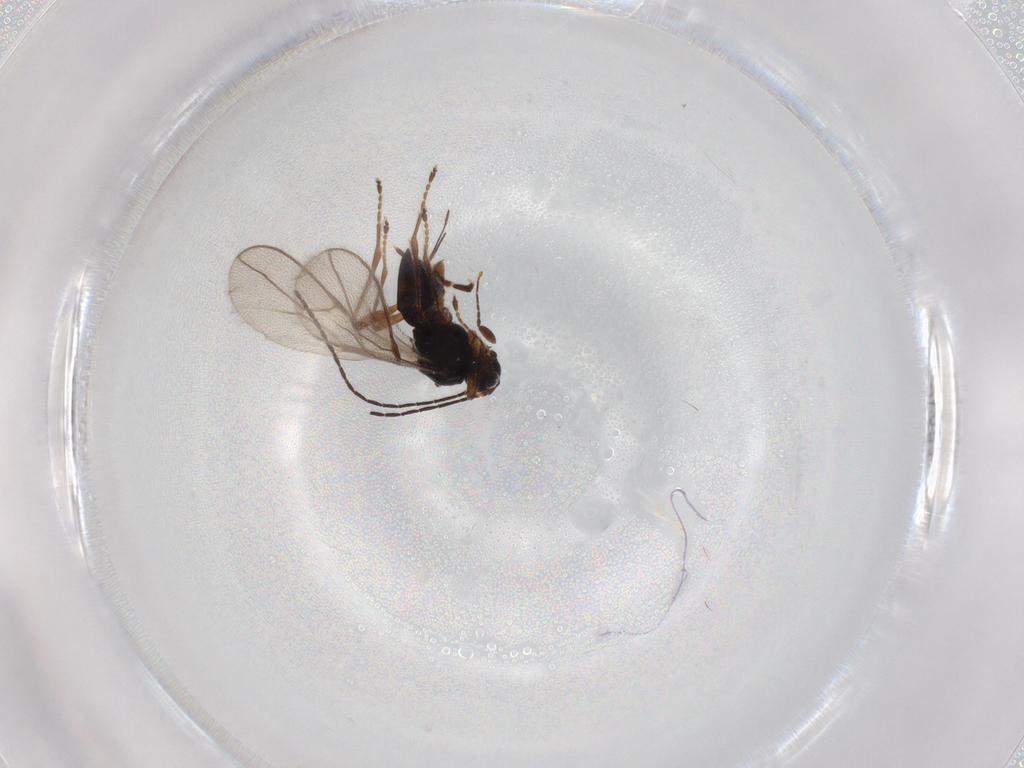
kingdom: Animalia
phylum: Arthropoda
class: Insecta
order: Hymenoptera
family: Braconidae
